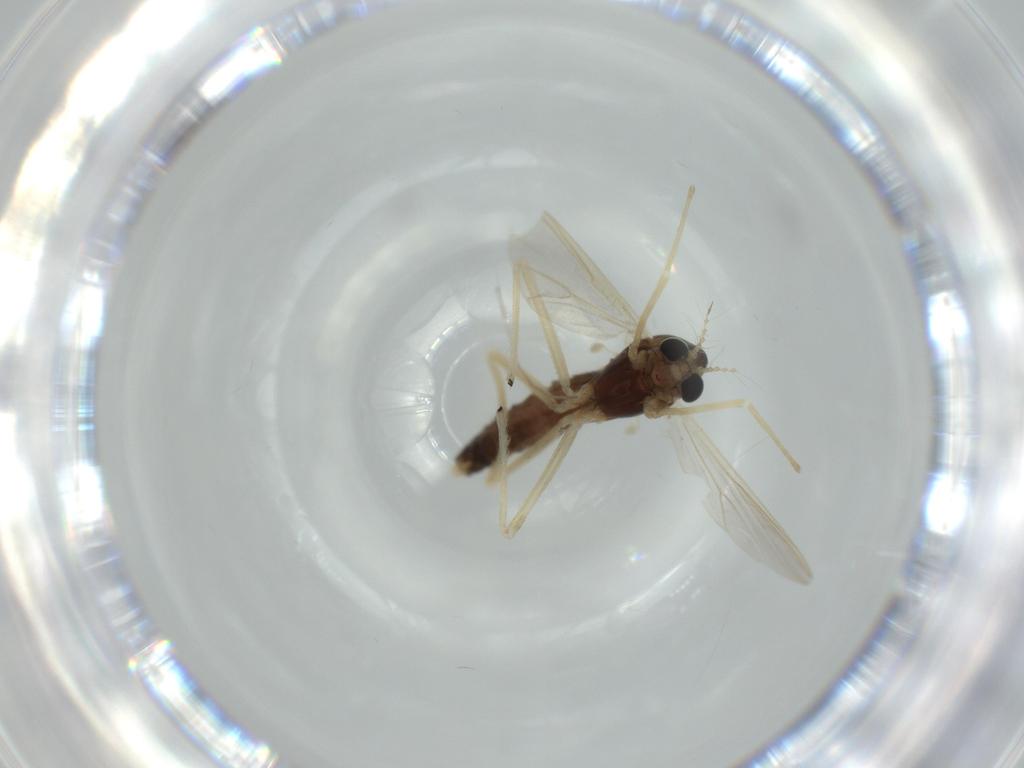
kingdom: Animalia
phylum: Arthropoda
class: Insecta
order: Diptera
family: Chironomidae
